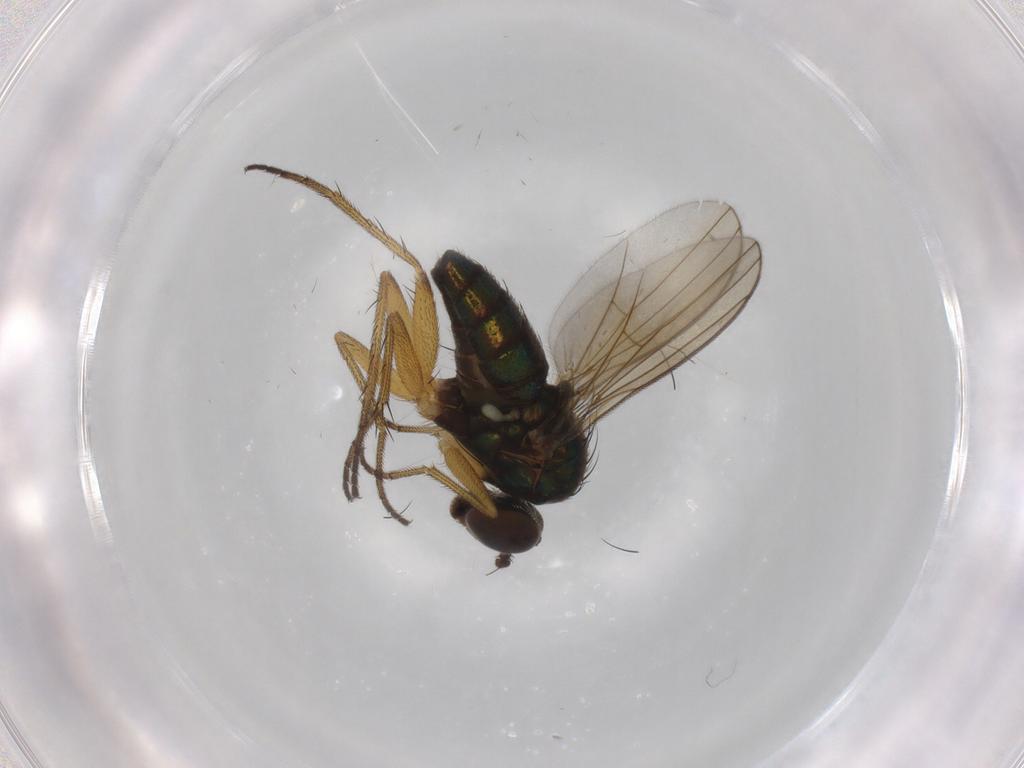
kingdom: Animalia
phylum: Arthropoda
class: Insecta
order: Diptera
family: Dolichopodidae
